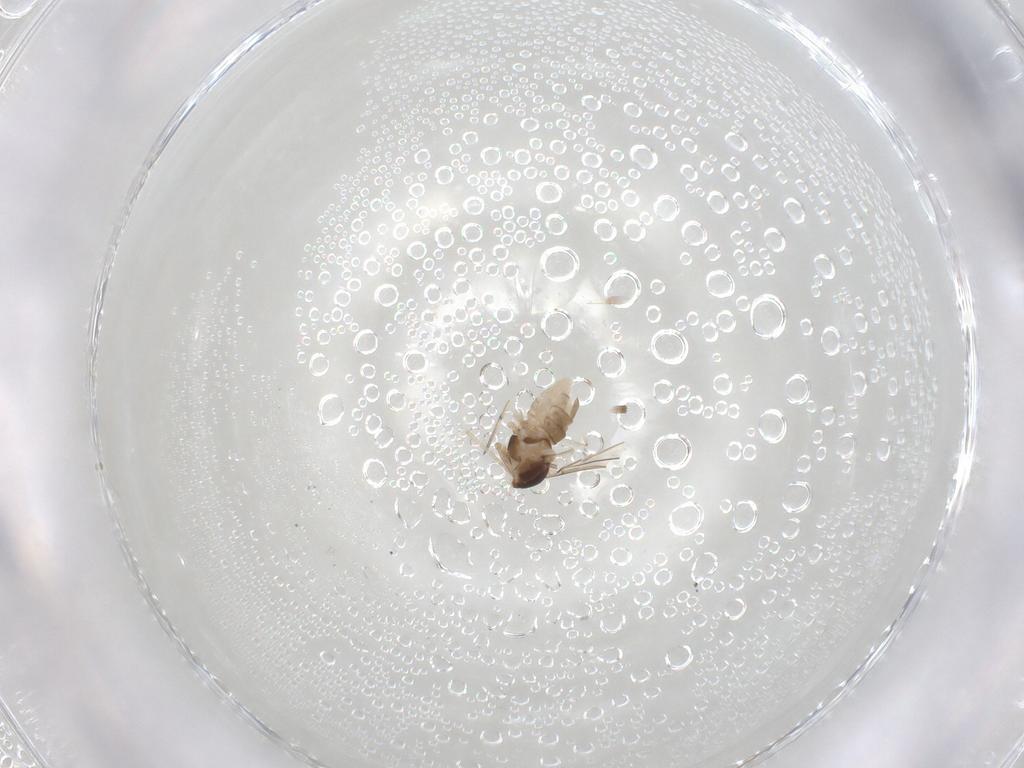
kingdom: Animalia
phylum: Arthropoda
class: Insecta
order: Diptera
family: Cecidomyiidae
